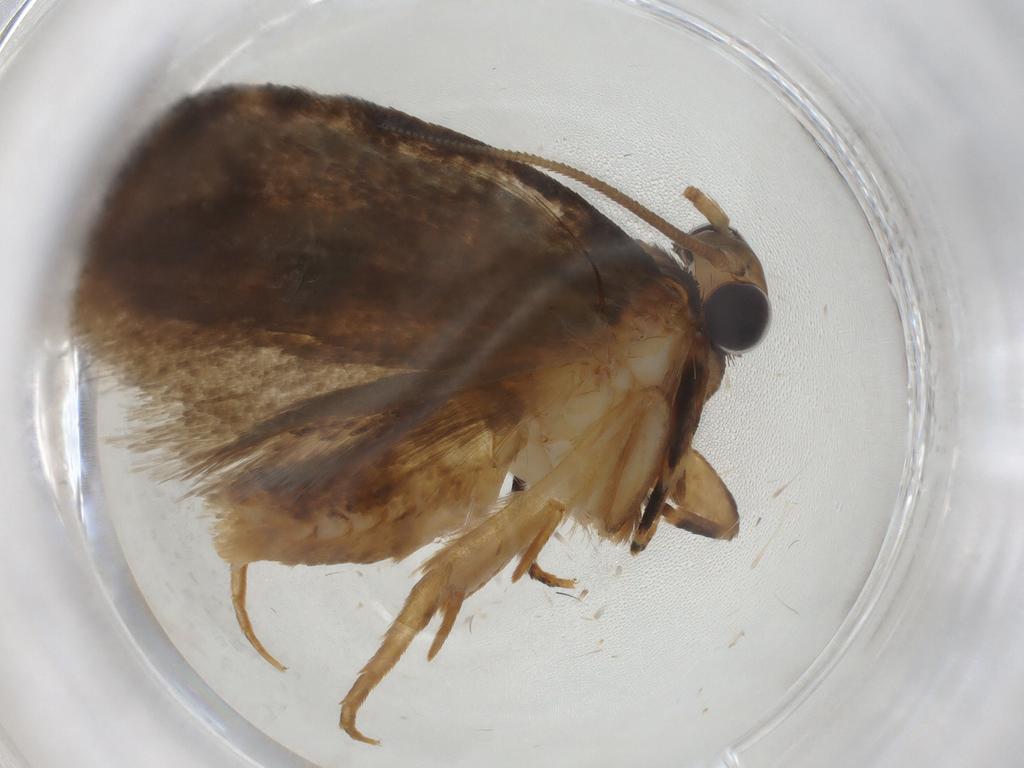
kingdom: Animalia
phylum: Arthropoda
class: Insecta
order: Lepidoptera
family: Nepticulidae
